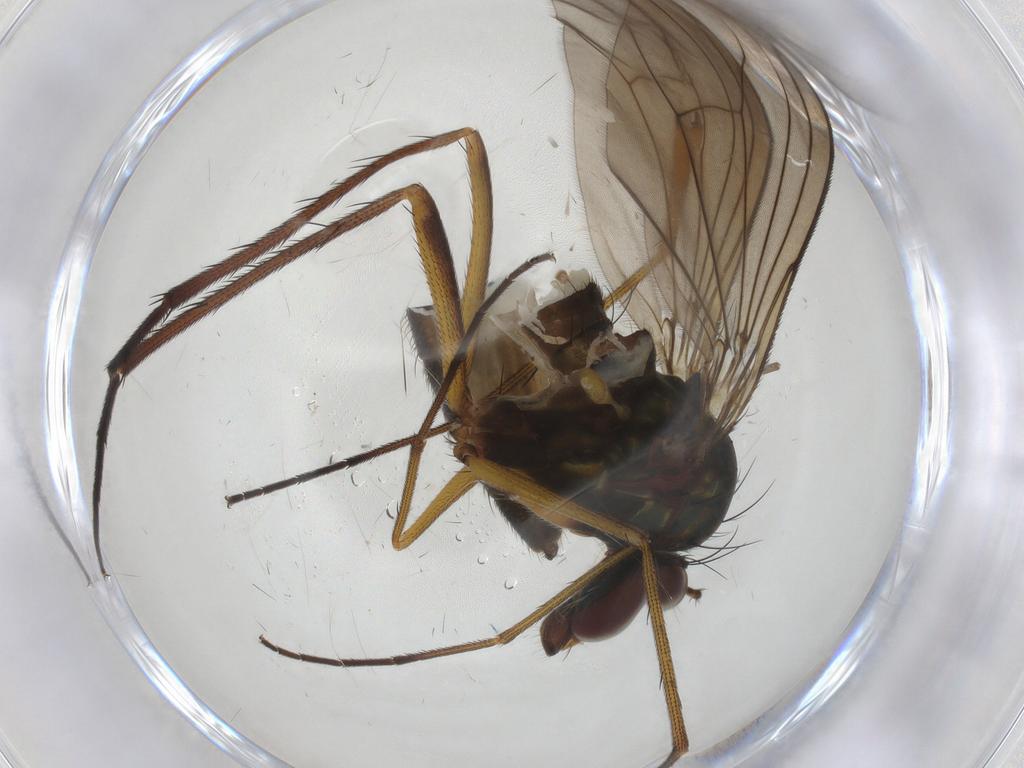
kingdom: Animalia
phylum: Arthropoda
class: Insecta
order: Diptera
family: Dolichopodidae
